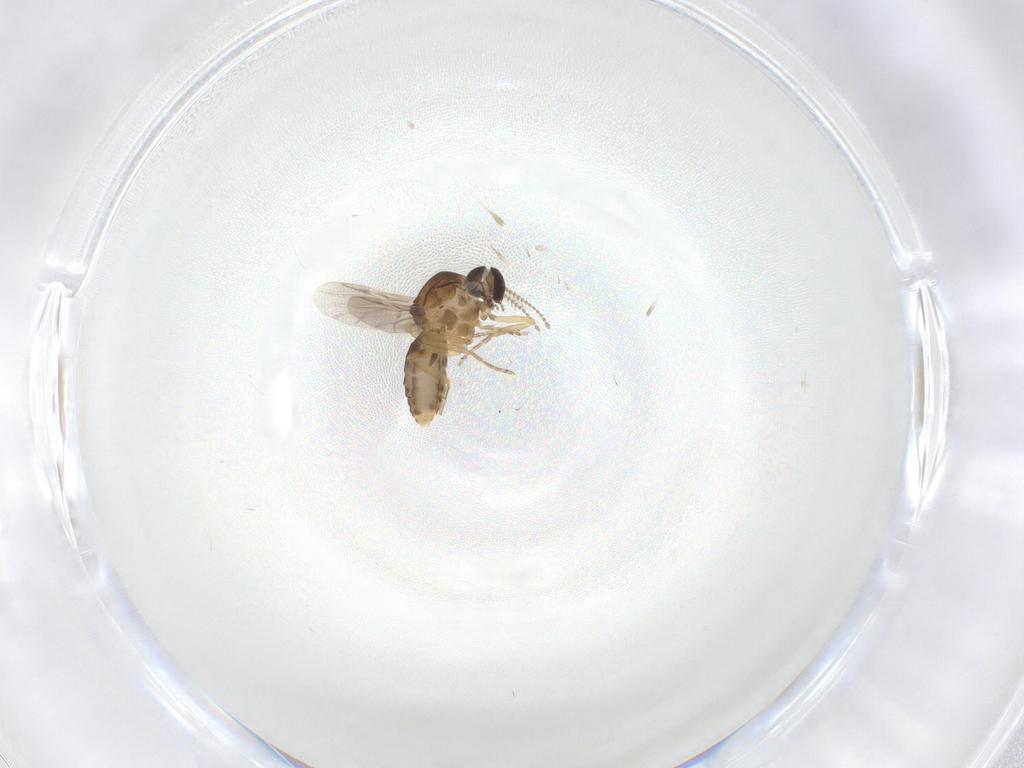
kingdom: Animalia
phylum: Arthropoda
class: Insecta
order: Diptera
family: Ceratopogonidae
